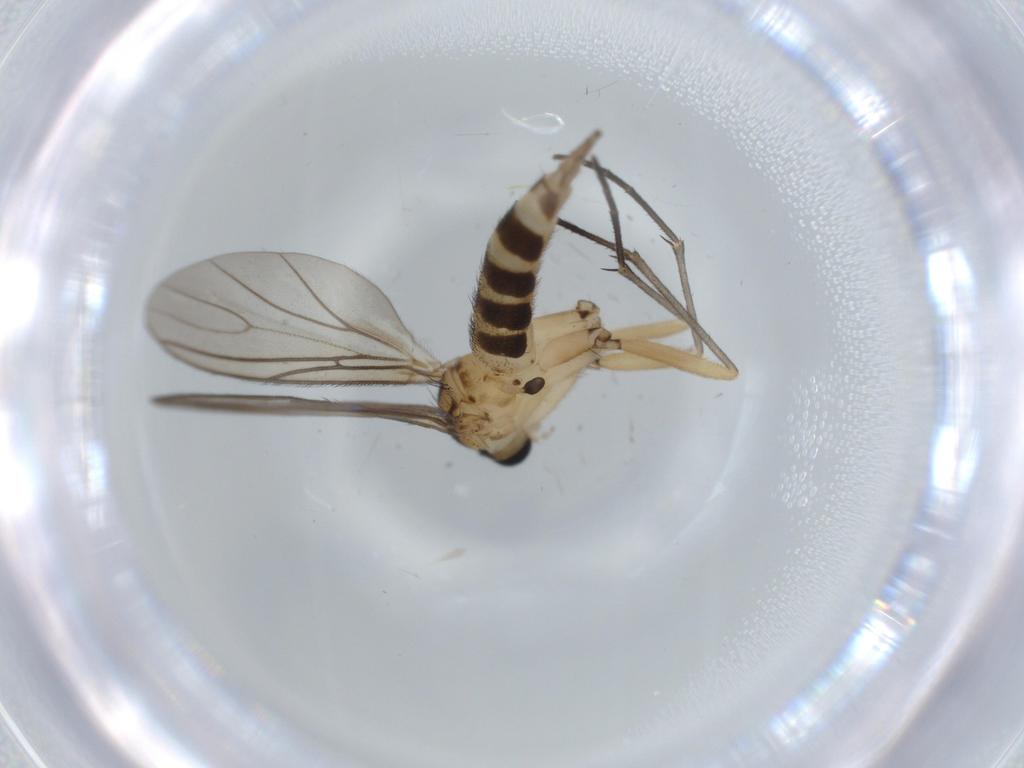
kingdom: Animalia
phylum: Arthropoda
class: Insecta
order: Diptera
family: Sciaridae
